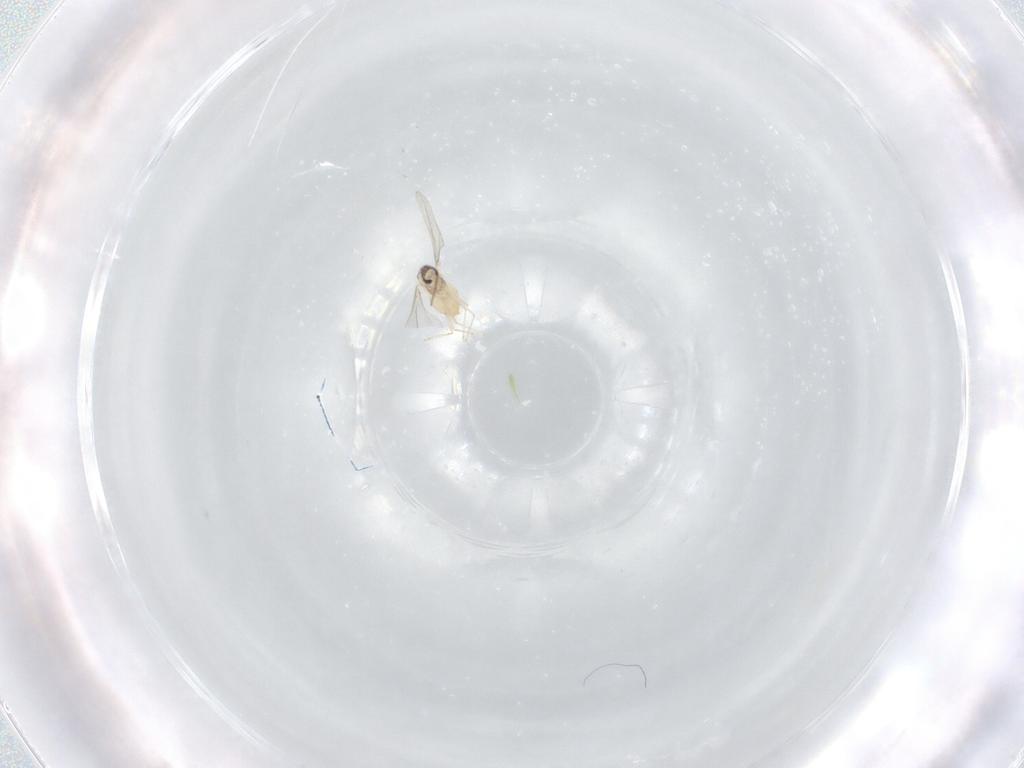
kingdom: Animalia
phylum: Arthropoda
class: Insecta
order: Diptera
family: Cecidomyiidae
